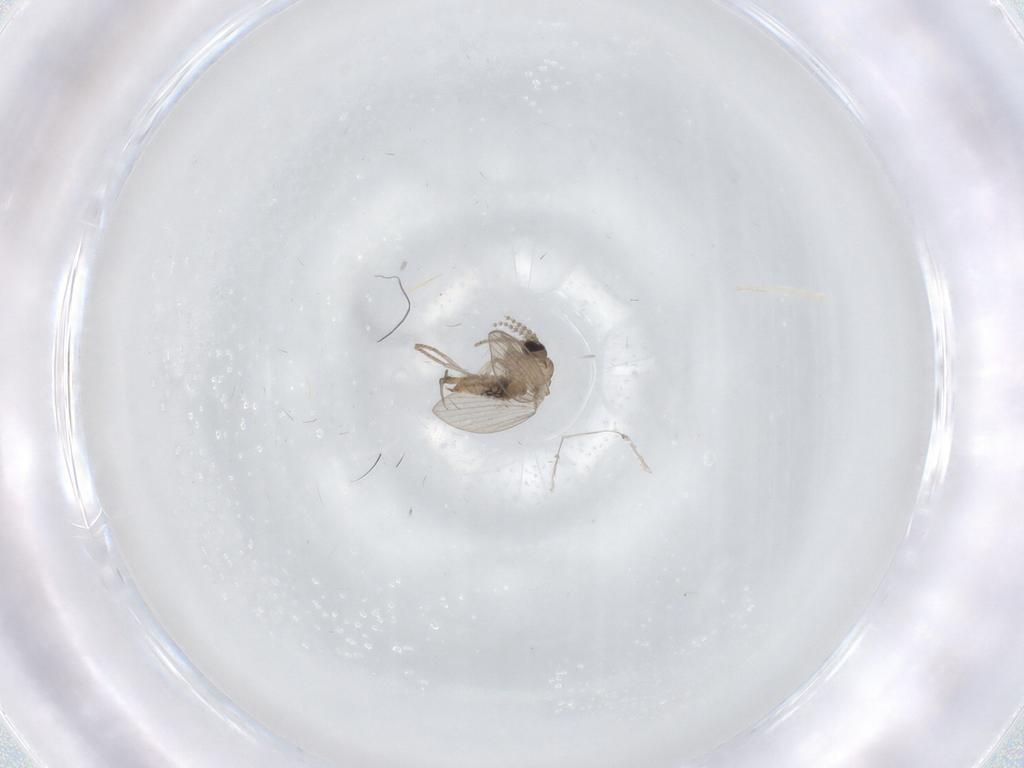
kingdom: Animalia
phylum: Arthropoda
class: Insecta
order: Diptera
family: Psychodidae
